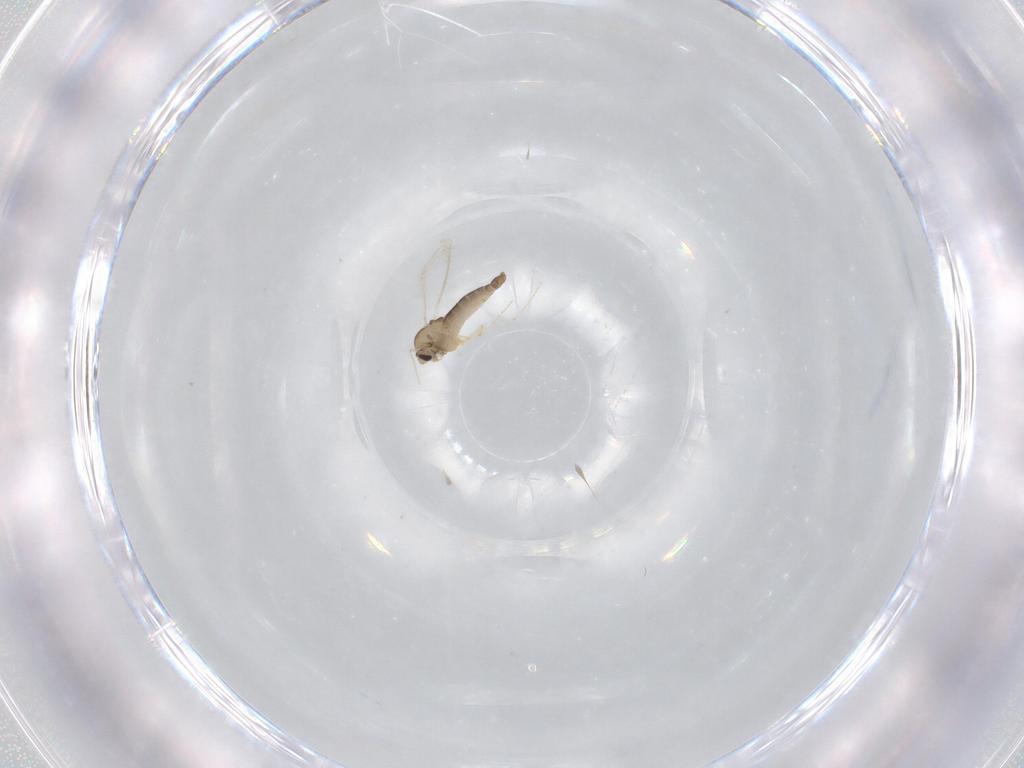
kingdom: Animalia
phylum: Arthropoda
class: Insecta
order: Diptera
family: Chironomidae
